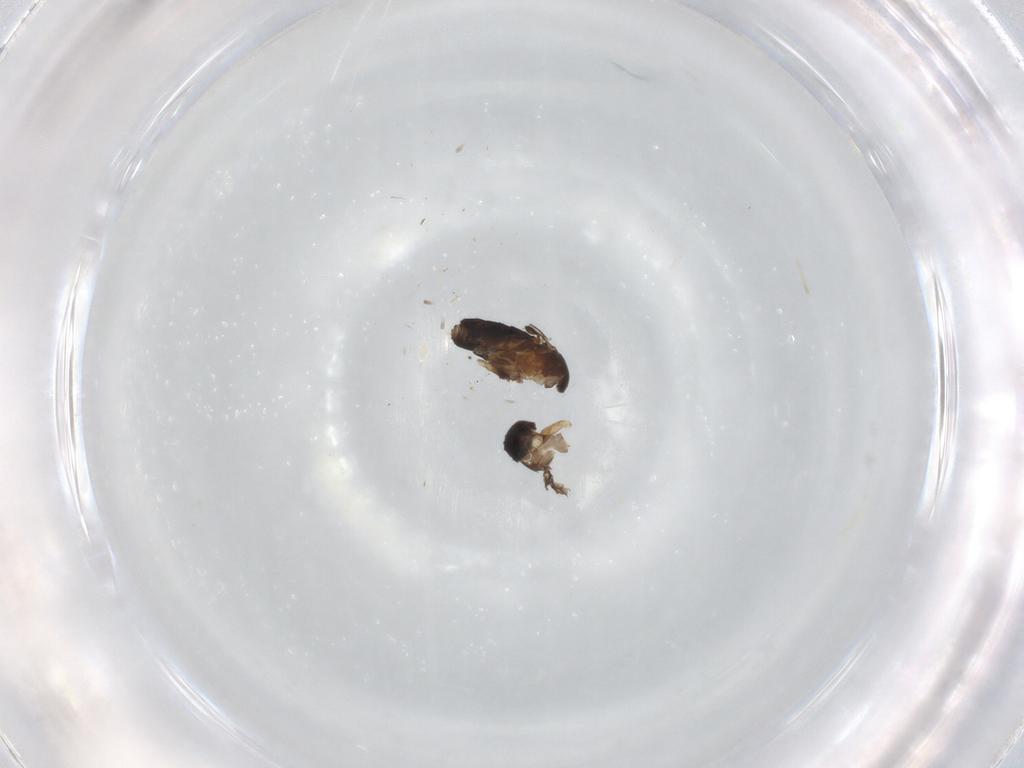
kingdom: Animalia
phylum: Arthropoda
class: Insecta
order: Diptera
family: Phoridae
